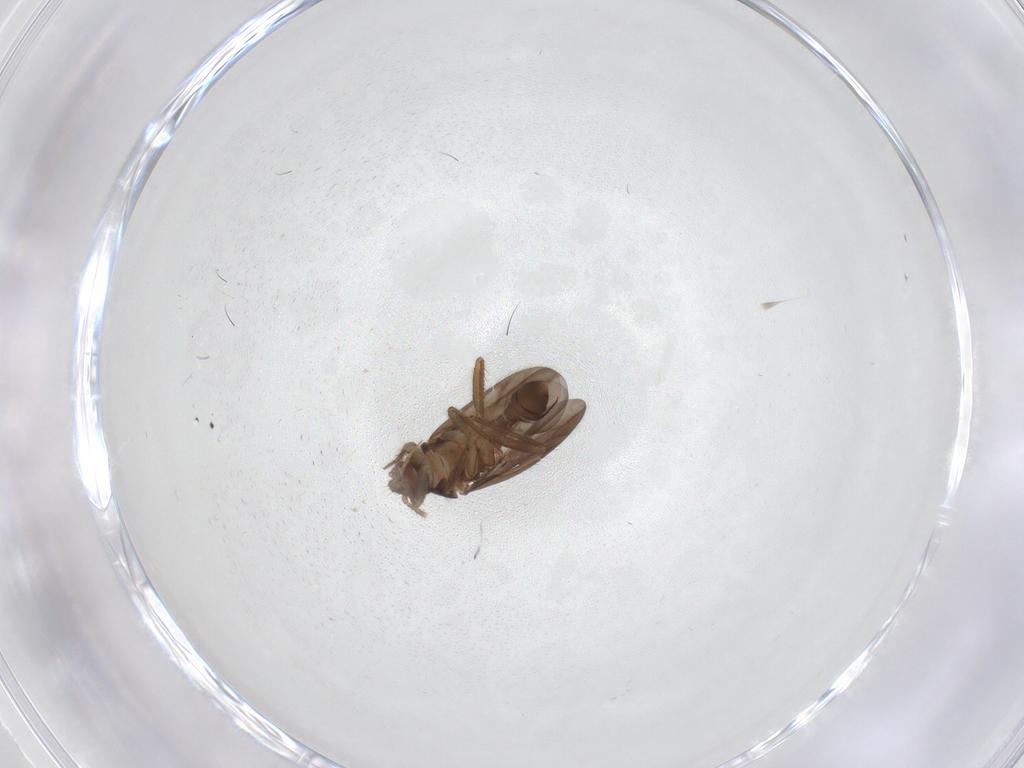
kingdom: Animalia
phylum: Arthropoda
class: Insecta
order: Hemiptera
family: Ceratocombidae
